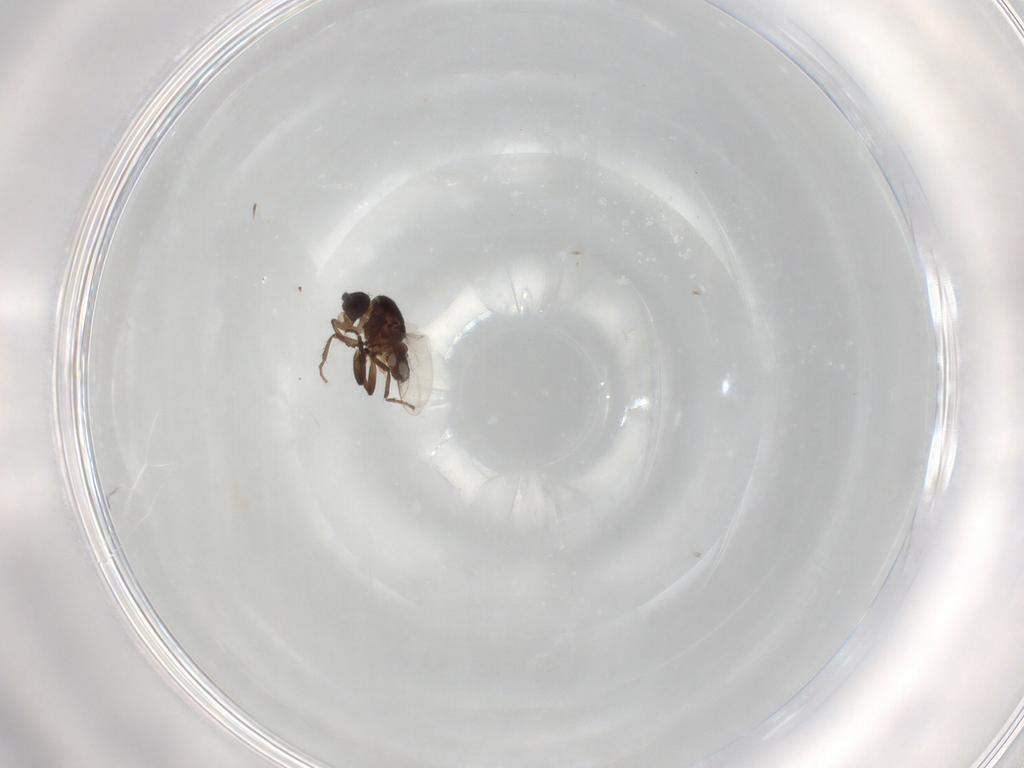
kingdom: Animalia
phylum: Arthropoda
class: Insecta
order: Diptera
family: Sphaeroceridae
